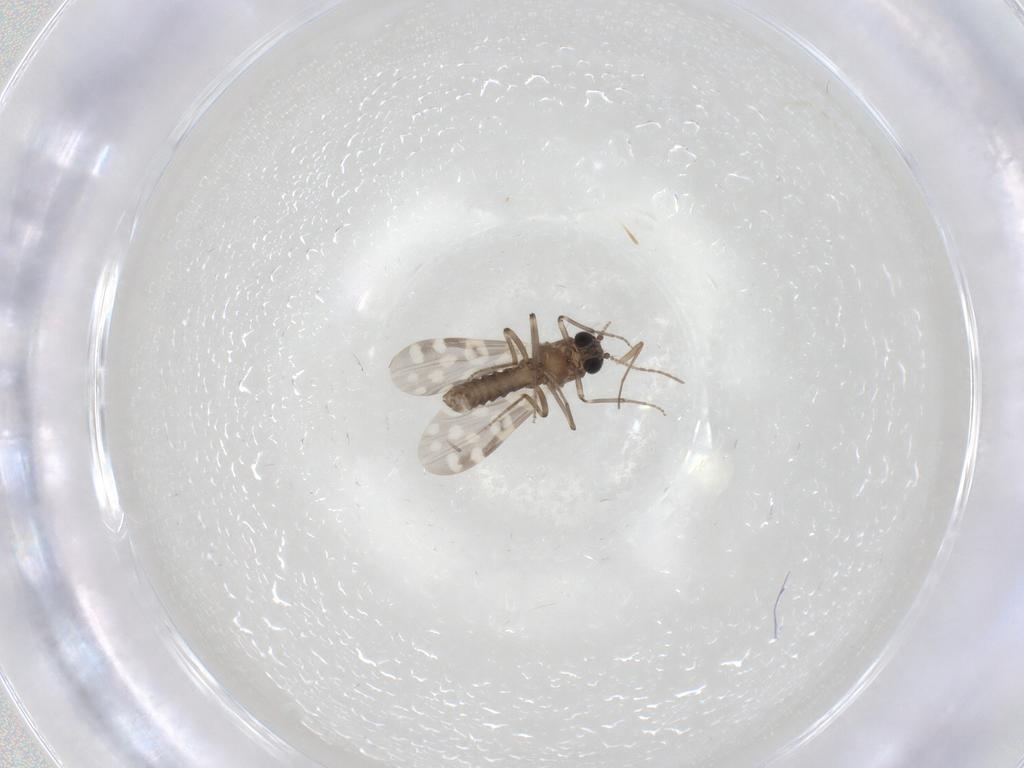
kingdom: Animalia
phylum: Arthropoda
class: Insecta
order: Diptera
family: Chironomidae
